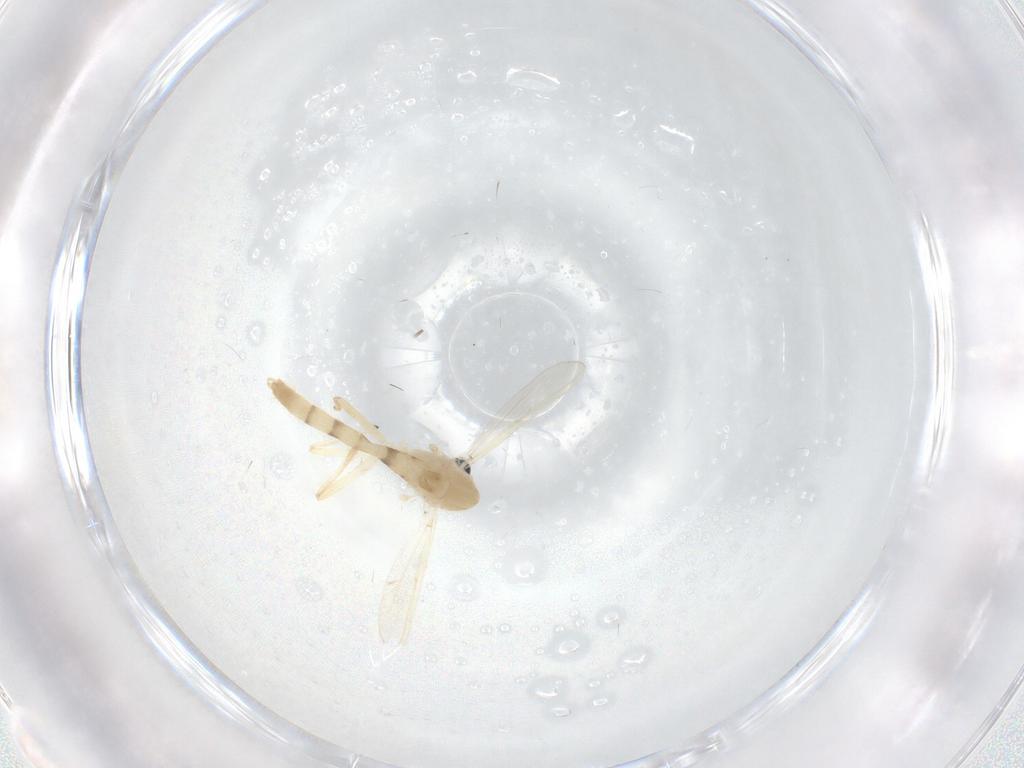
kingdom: Animalia
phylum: Arthropoda
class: Insecta
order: Diptera
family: Chironomidae
